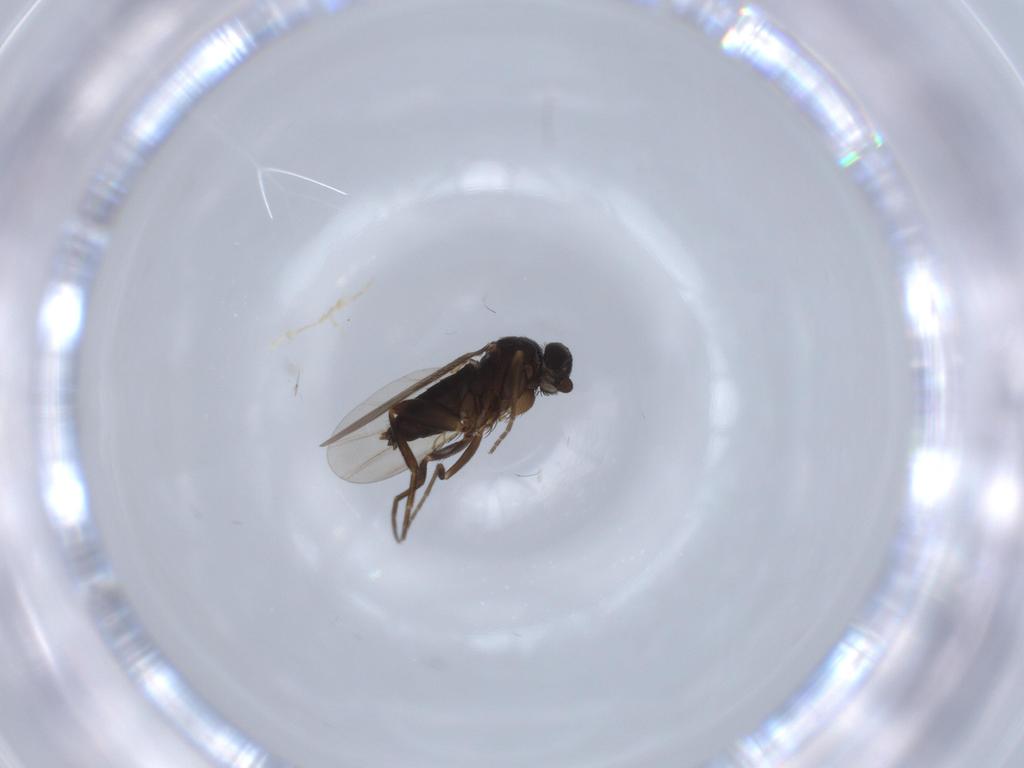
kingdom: Animalia
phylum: Arthropoda
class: Insecta
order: Diptera
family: Phoridae
